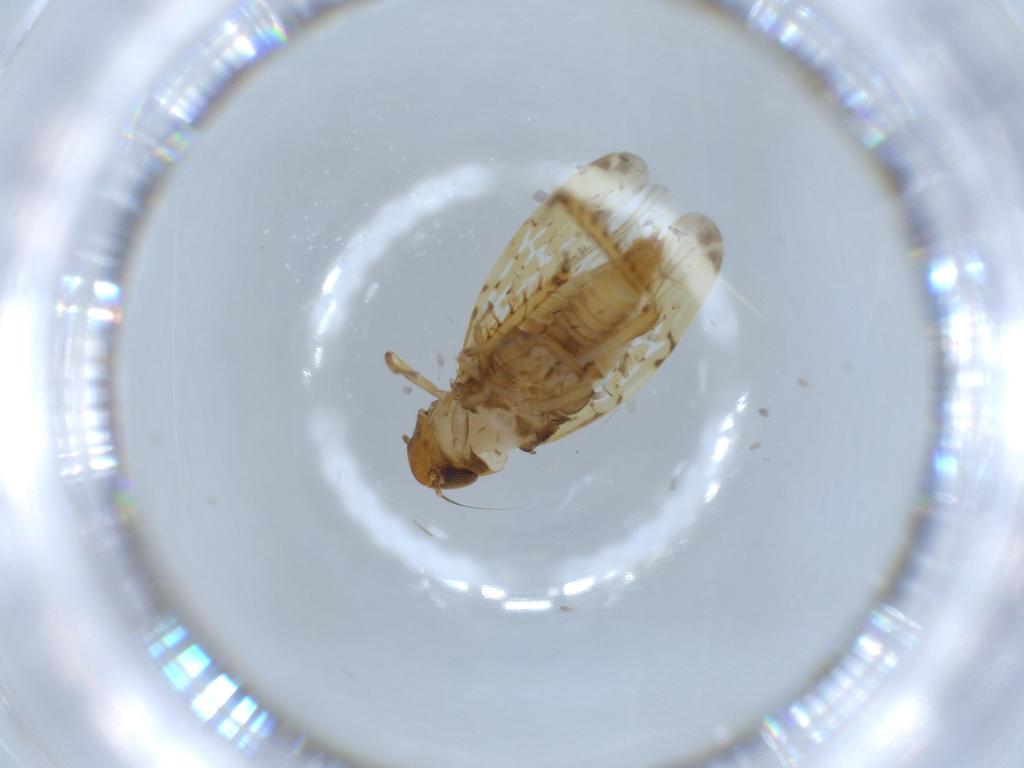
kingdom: Animalia
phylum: Arthropoda
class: Insecta
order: Hemiptera
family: Cicadellidae
